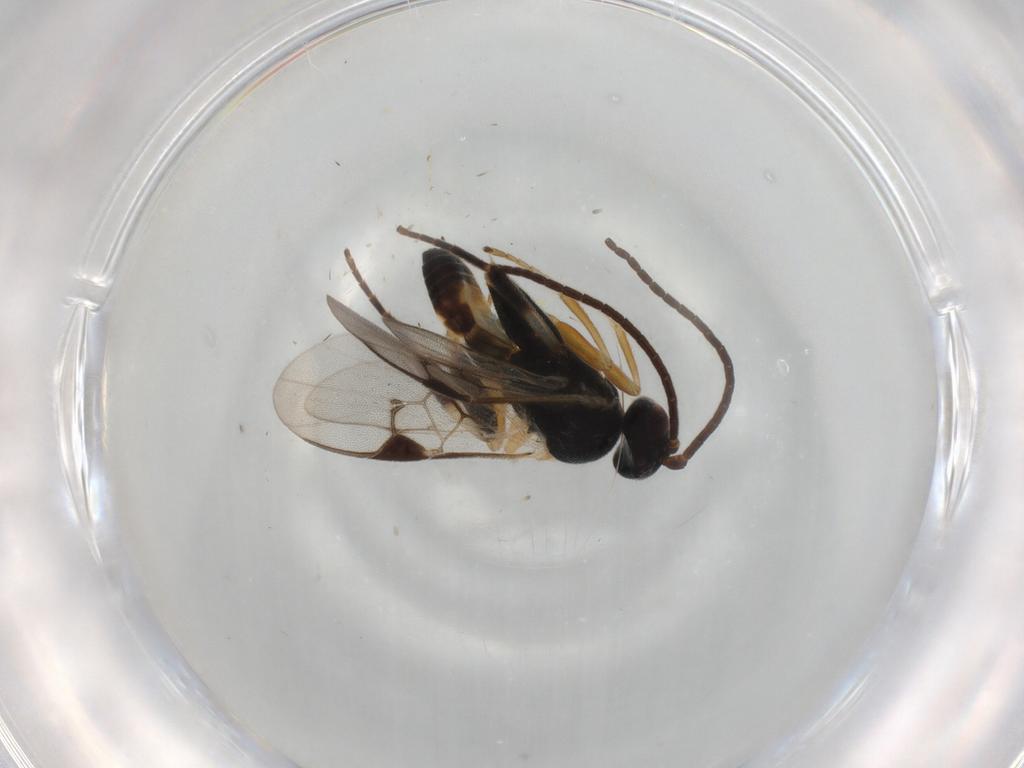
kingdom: Animalia
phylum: Arthropoda
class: Insecta
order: Hymenoptera
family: Braconidae
